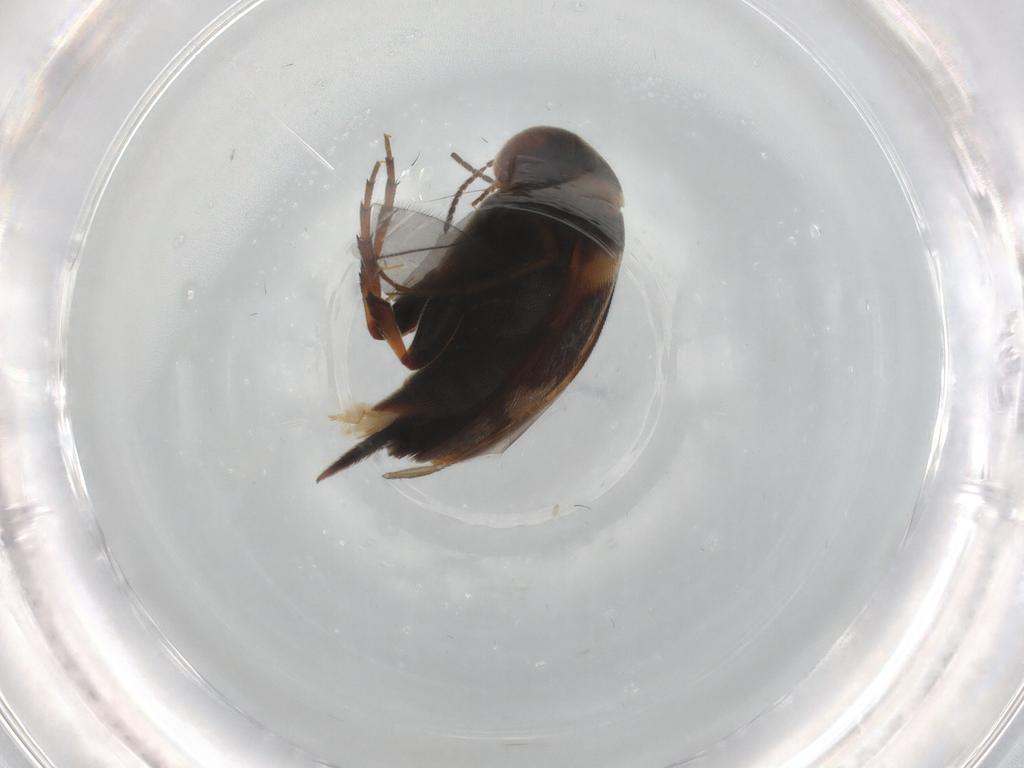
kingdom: Animalia
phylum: Arthropoda
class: Insecta
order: Coleoptera
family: Mordellidae
